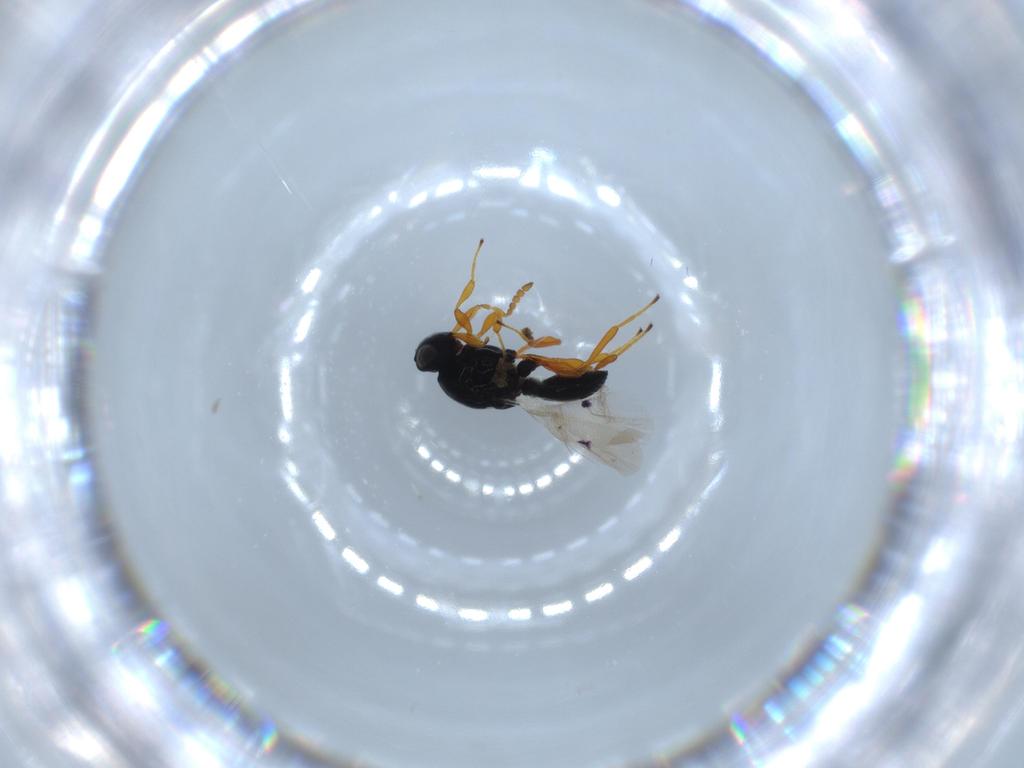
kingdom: Animalia
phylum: Arthropoda
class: Insecta
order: Hymenoptera
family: Platygastridae
